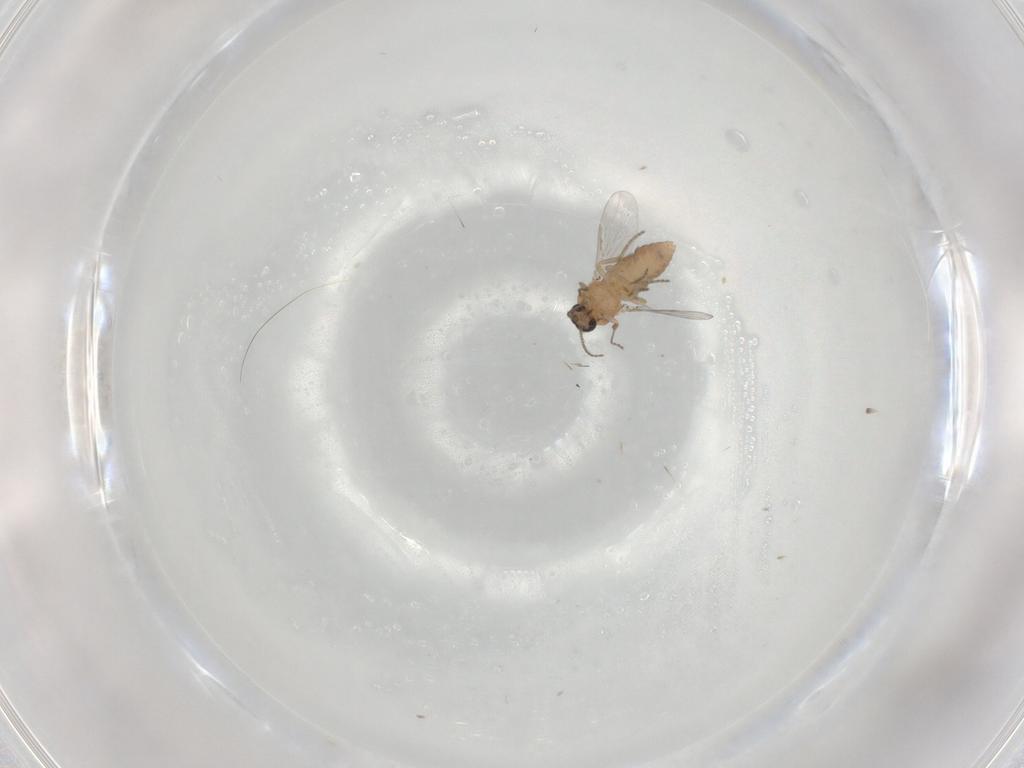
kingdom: Animalia
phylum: Arthropoda
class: Insecta
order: Diptera
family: Ceratopogonidae
